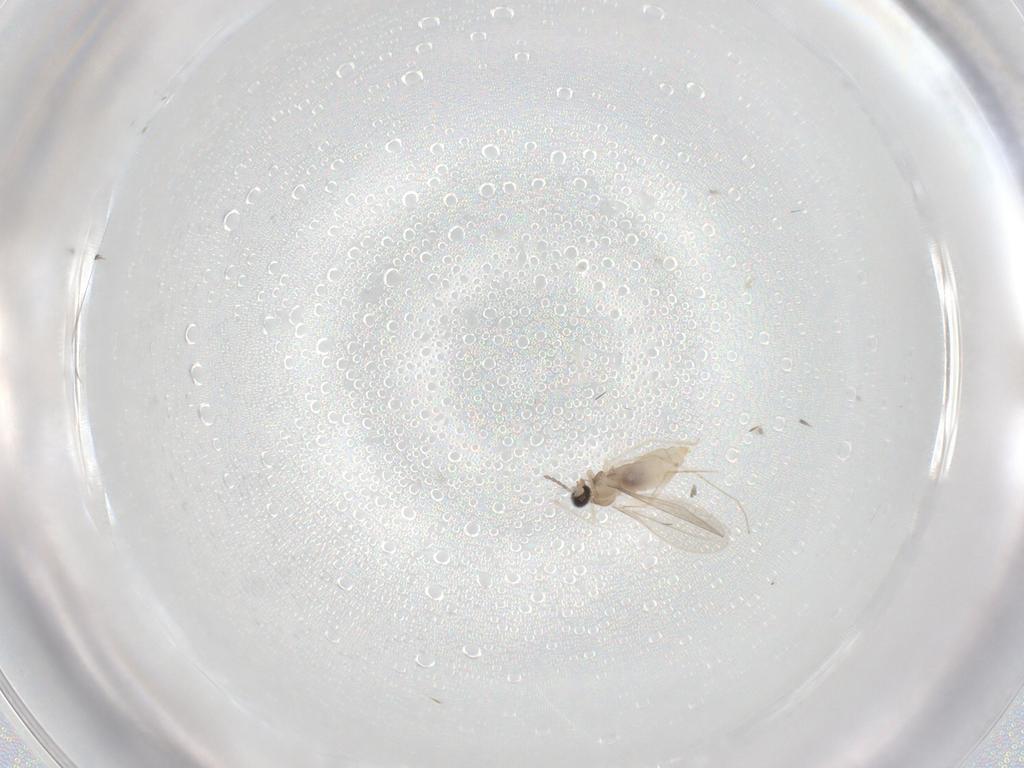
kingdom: Animalia
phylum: Arthropoda
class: Insecta
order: Diptera
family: Cecidomyiidae
